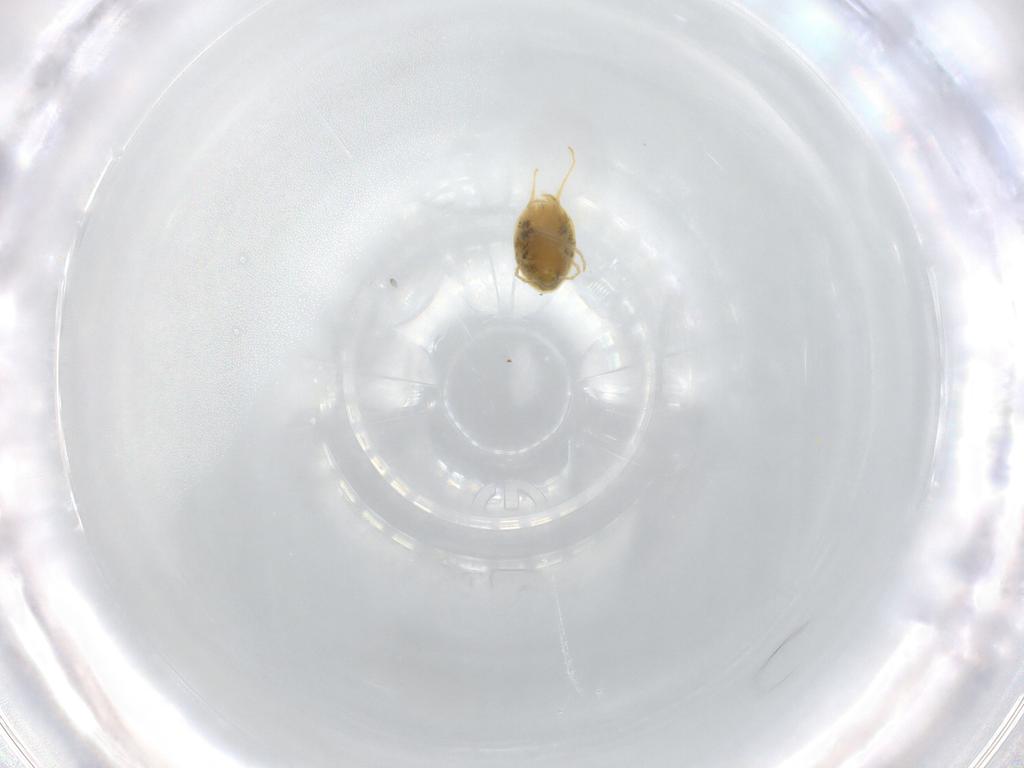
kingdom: Animalia
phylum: Arthropoda
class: Arachnida
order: Trombidiformes
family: Tetranychidae
